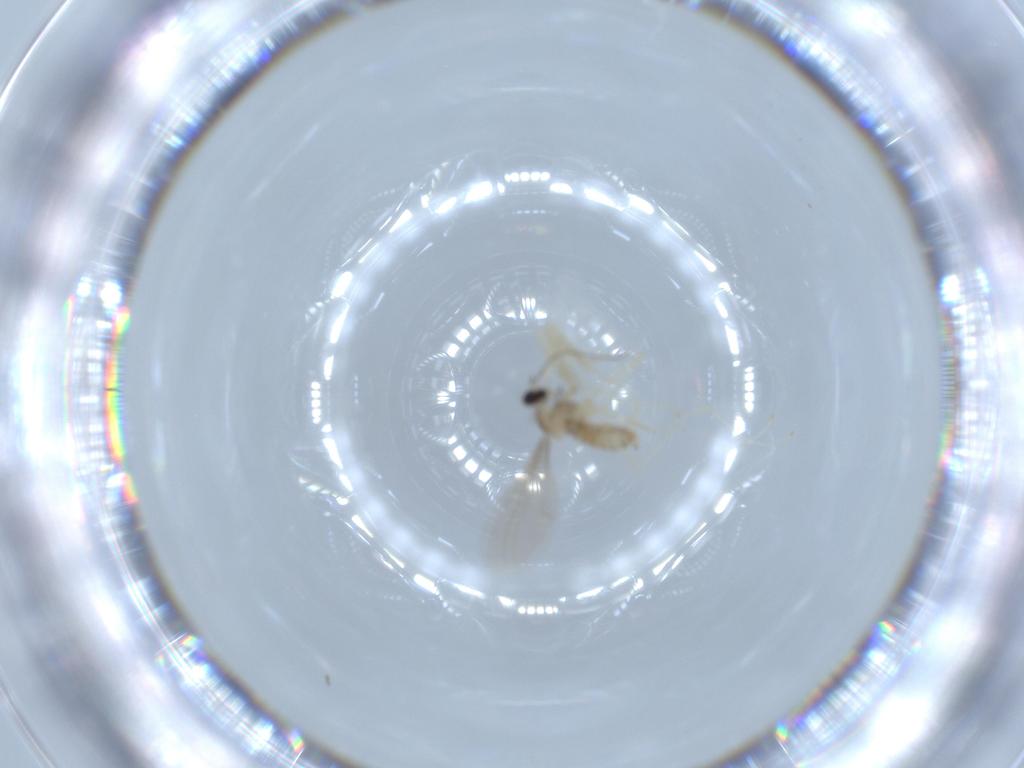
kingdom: Animalia
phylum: Arthropoda
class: Insecta
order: Diptera
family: Cecidomyiidae
